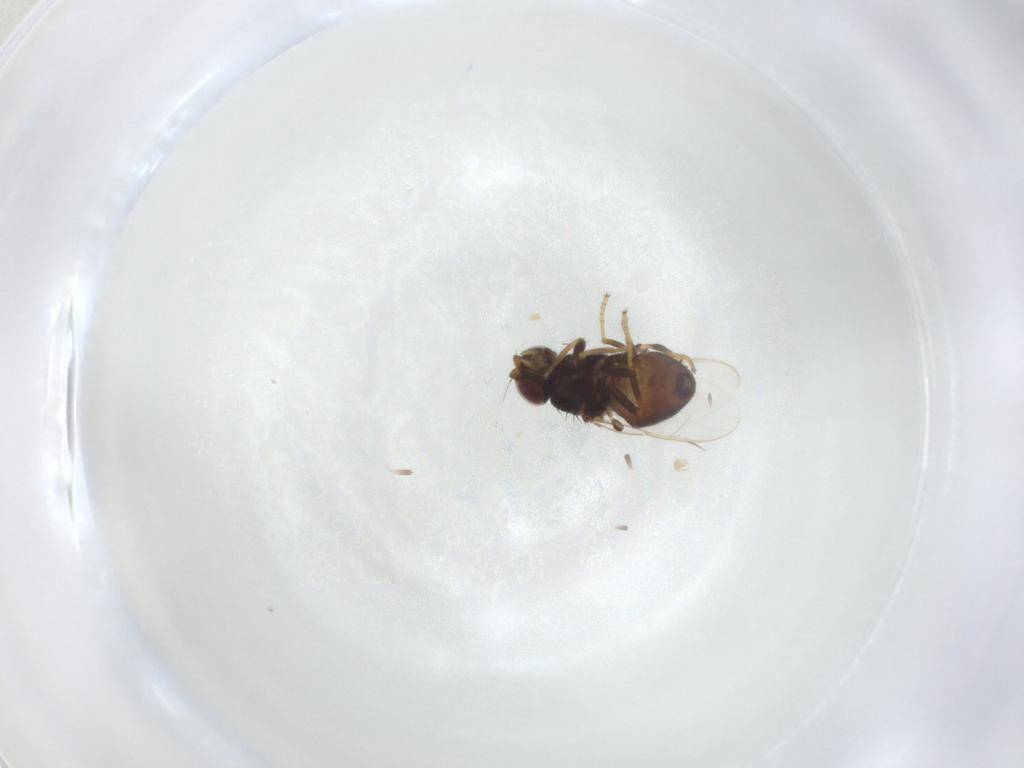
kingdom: Animalia
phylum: Arthropoda
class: Insecta
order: Diptera
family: Chloropidae
